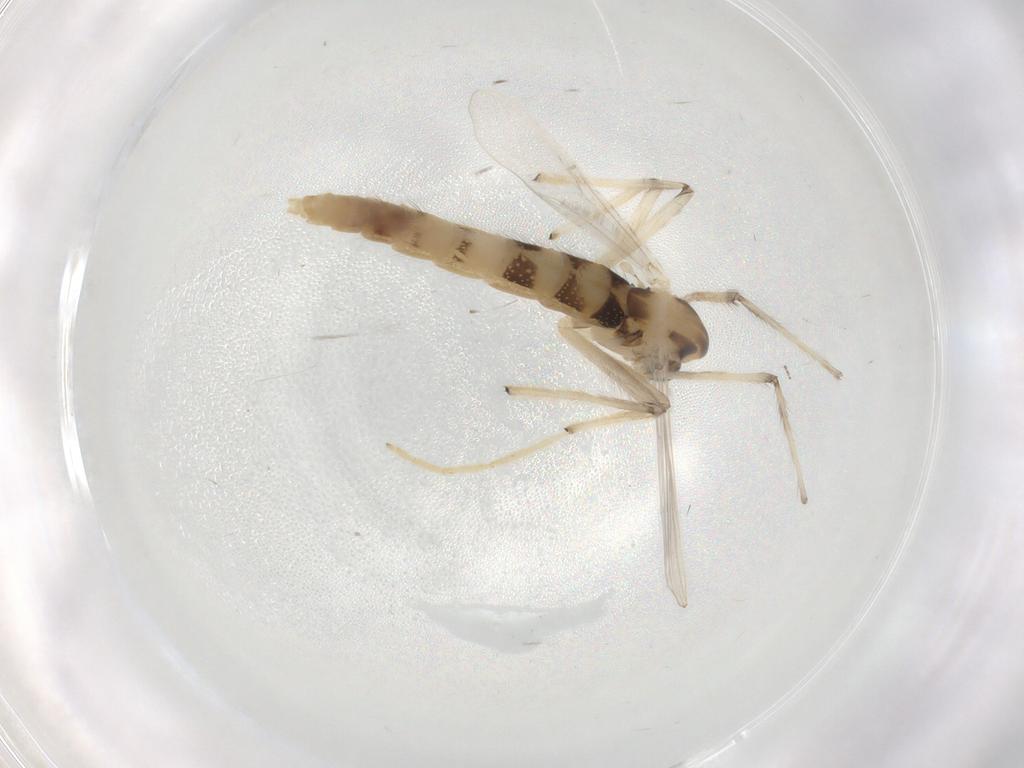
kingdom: Animalia
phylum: Arthropoda
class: Insecta
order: Diptera
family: Chironomidae
